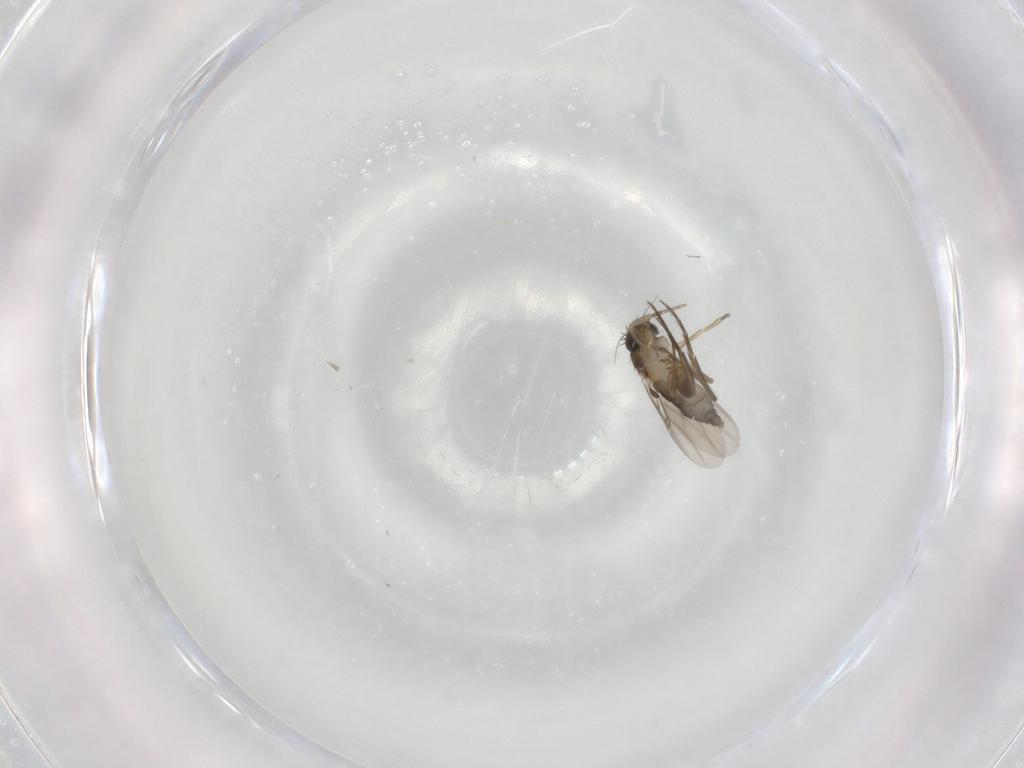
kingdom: Animalia
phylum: Arthropoda
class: Insecta
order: Diptera
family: Phoridae
